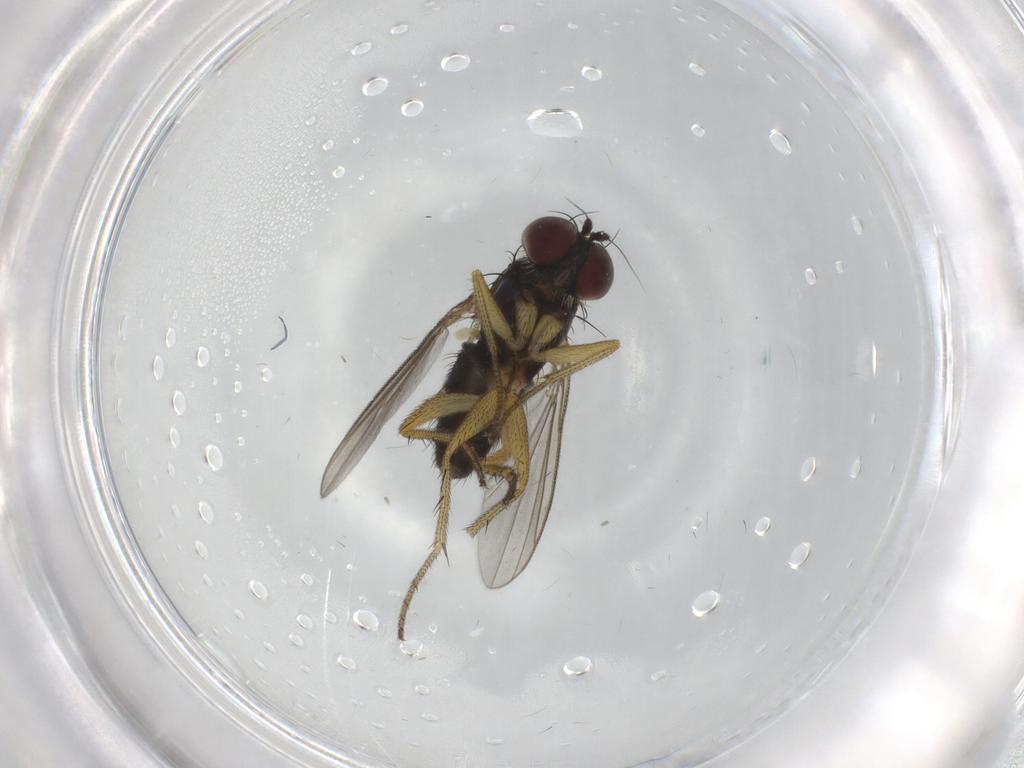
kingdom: Animalia
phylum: Arthropoda
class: Insecta
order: Diptera
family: Dolichopodidae
